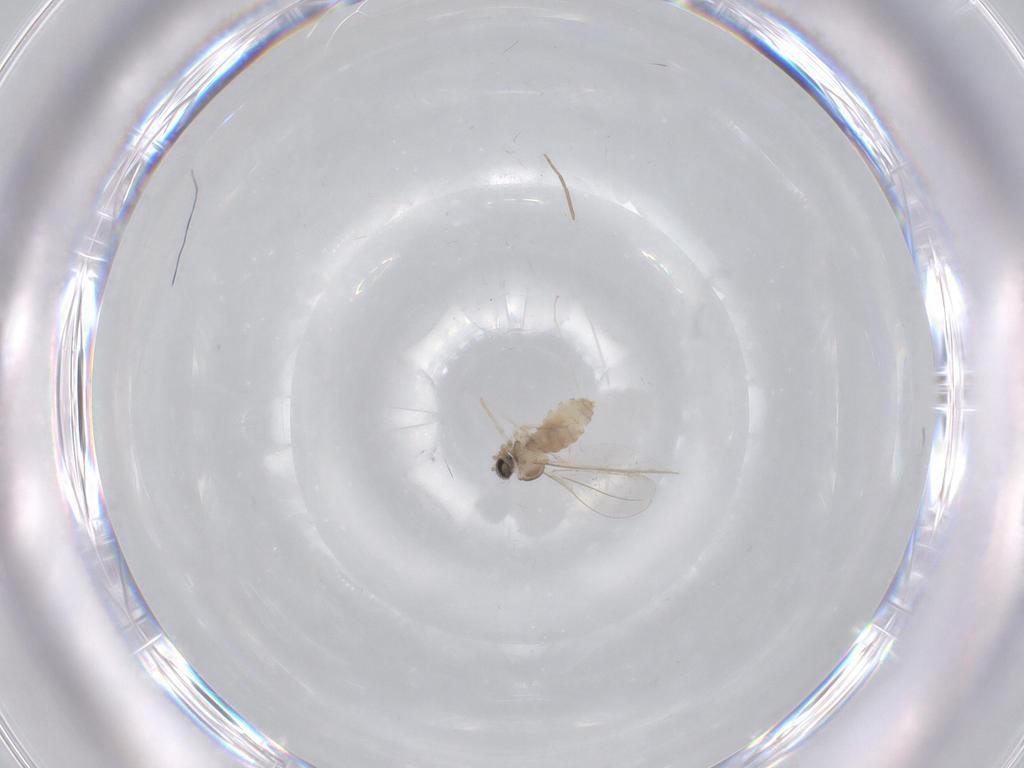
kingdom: Animalia
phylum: Arthropoda
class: Insecta
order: Diptera
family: Cecidomyiidae
